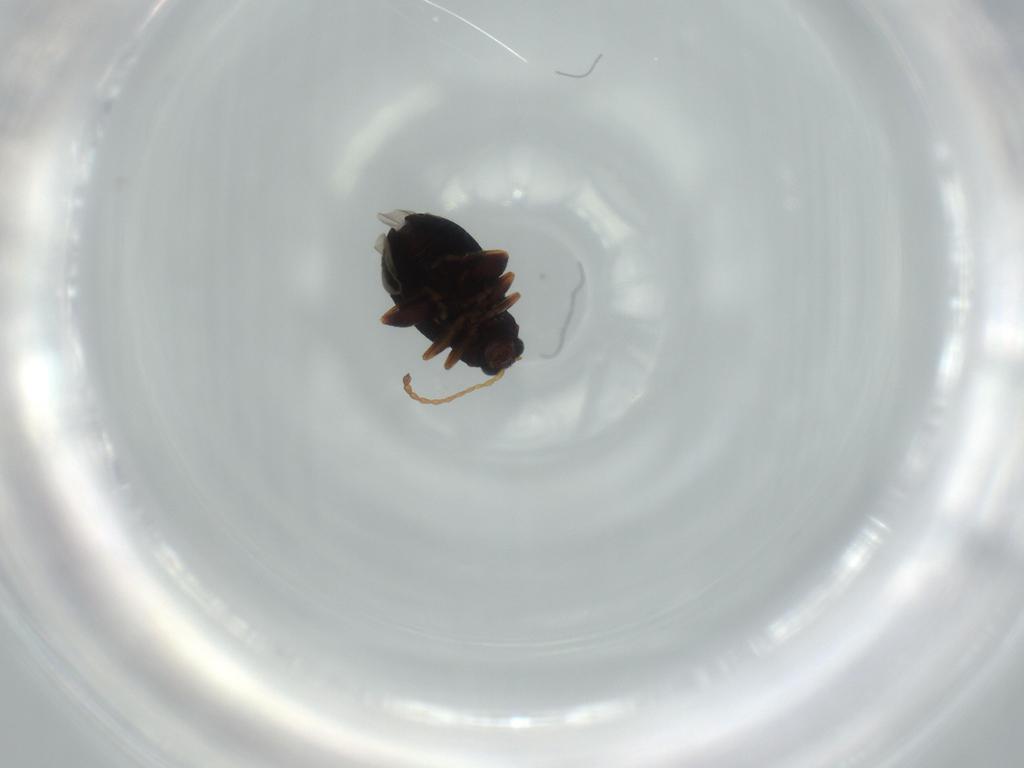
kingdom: Animalia
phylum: Arthropoda
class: Insecta
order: Coleoptera
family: Chrysomelidae
